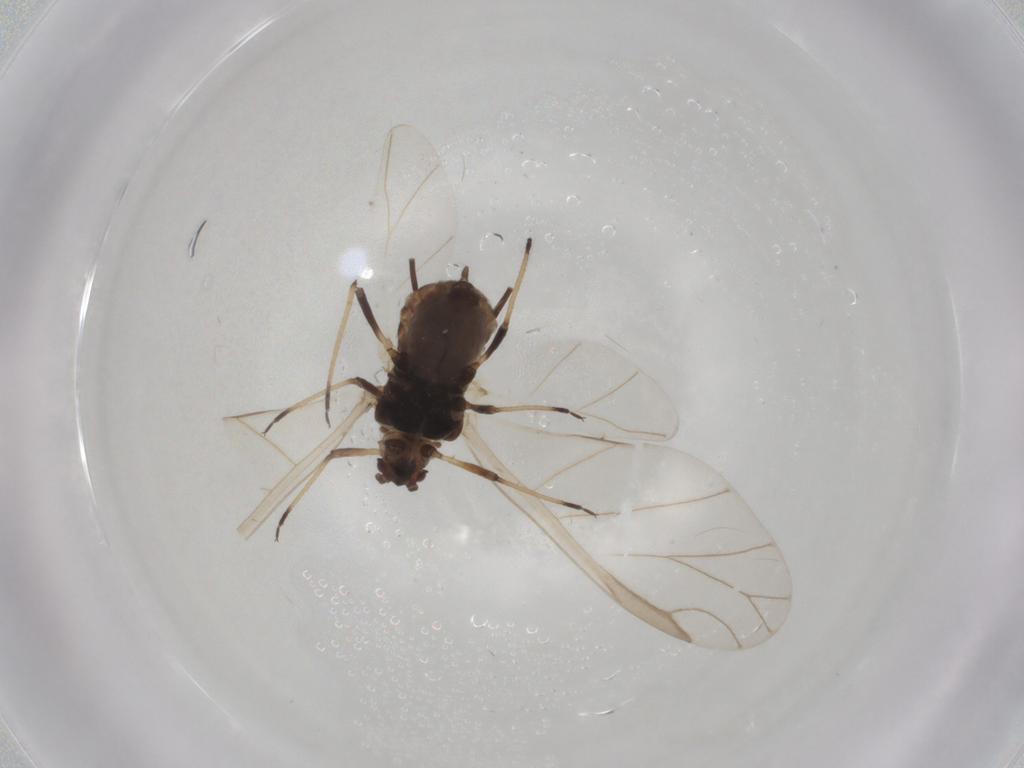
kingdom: Animalia
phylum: Arthropoda
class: Insecta
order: Hemiptera
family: Aphididae
